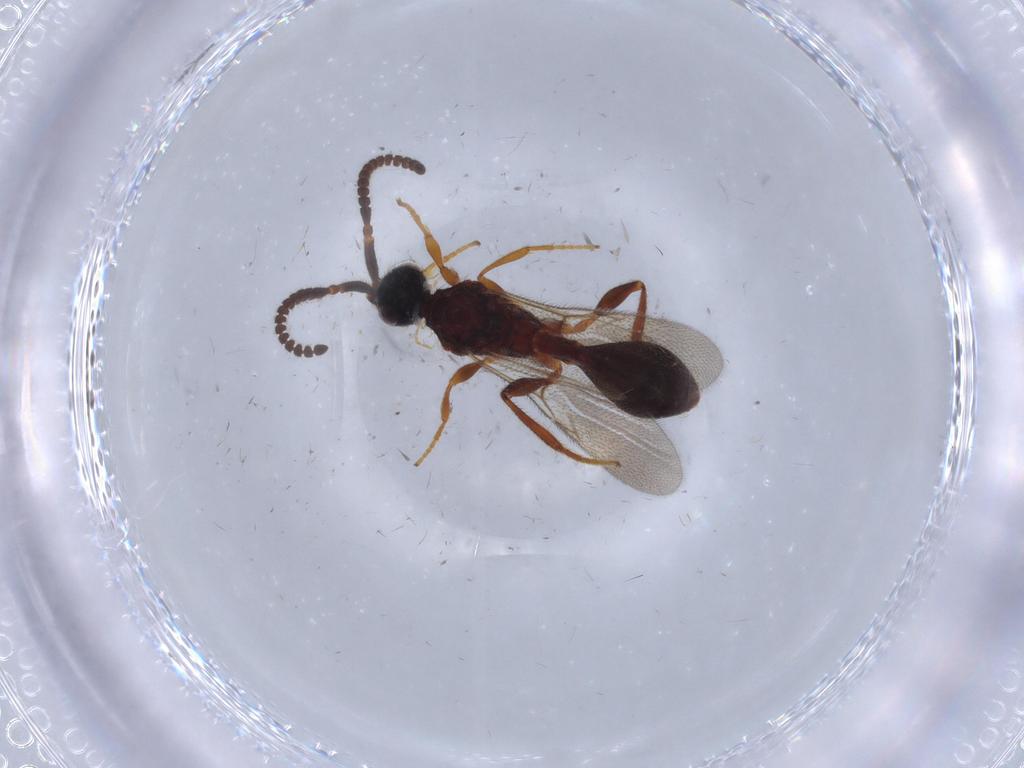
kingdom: Animalia
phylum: Arthropoda
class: Insecta
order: Hymenoptera
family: Diapriidae
